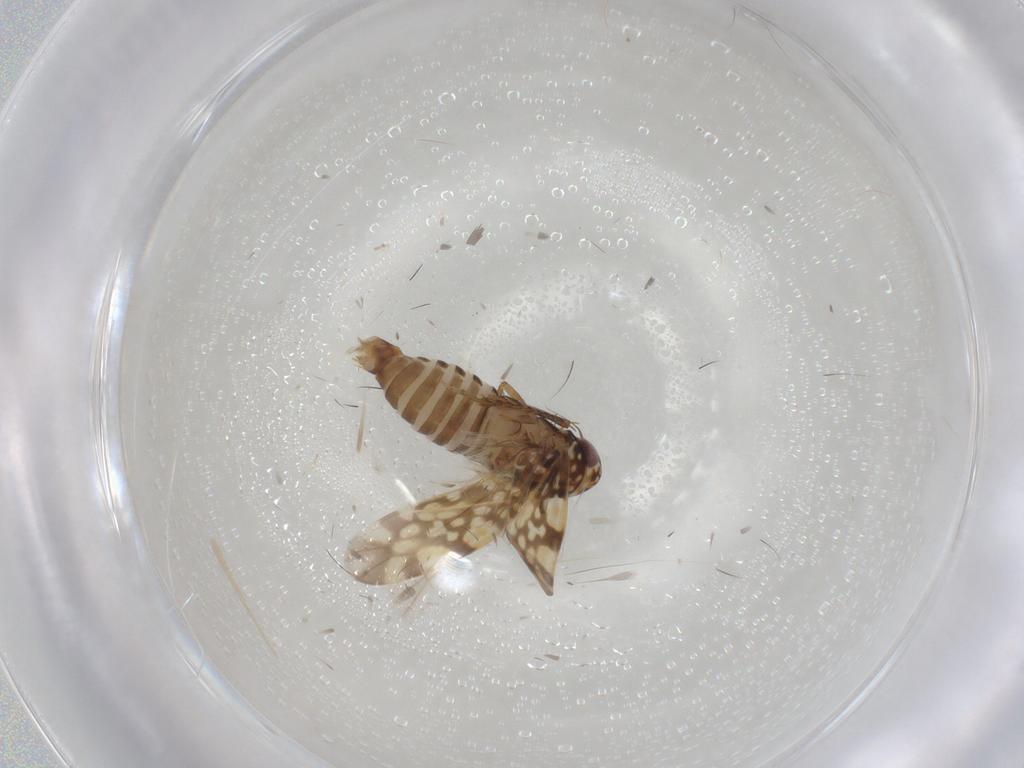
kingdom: Animalia
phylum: Arthropoda
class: Insecta
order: Hemiptera
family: Cicadellidae
